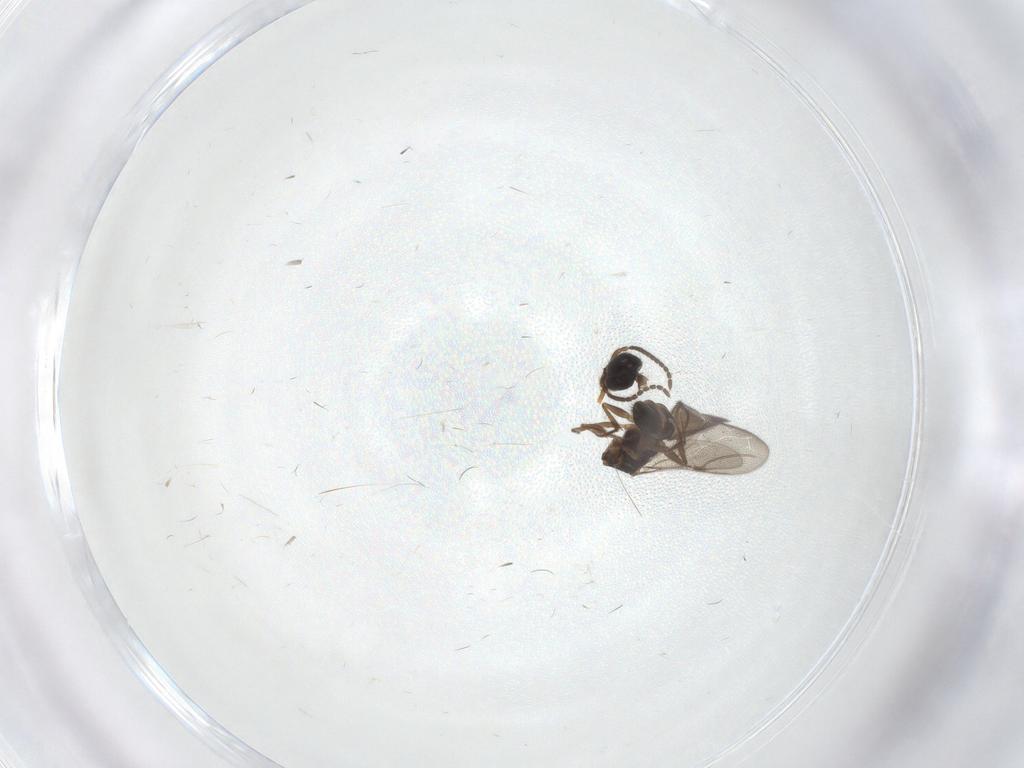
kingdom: Animalia
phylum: Arthropoda
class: Insecta
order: Hymenoptera
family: Bethylidae
